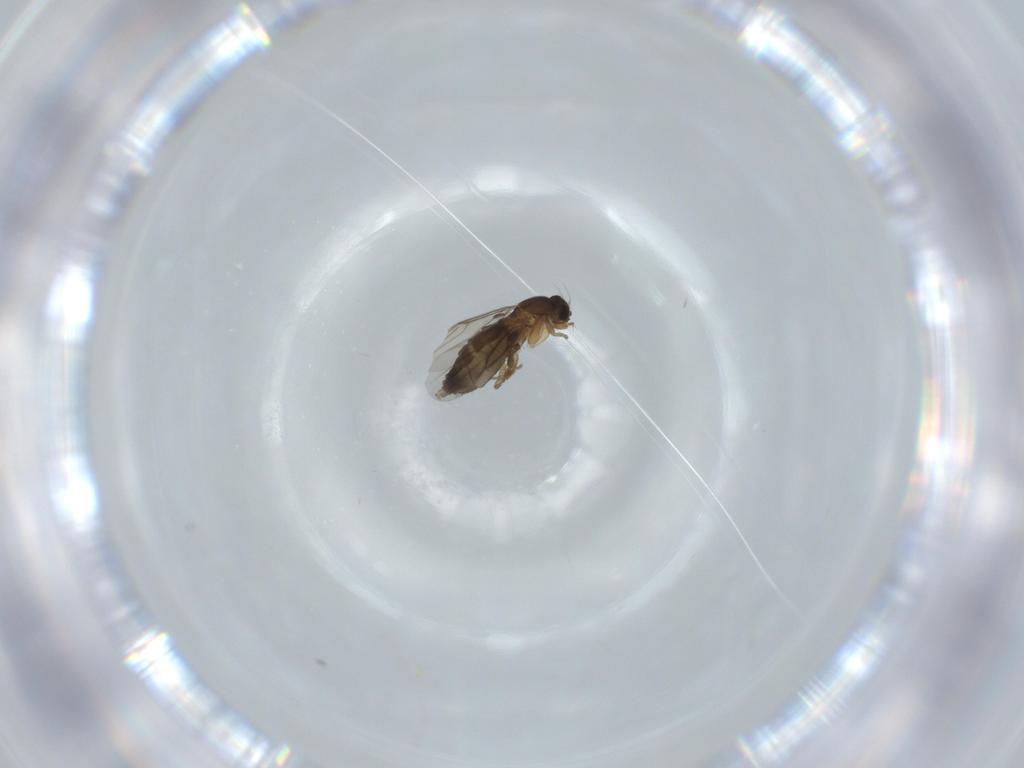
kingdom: Animalia
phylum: Arthropoda
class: Insecta
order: Diptera
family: Phoridae
